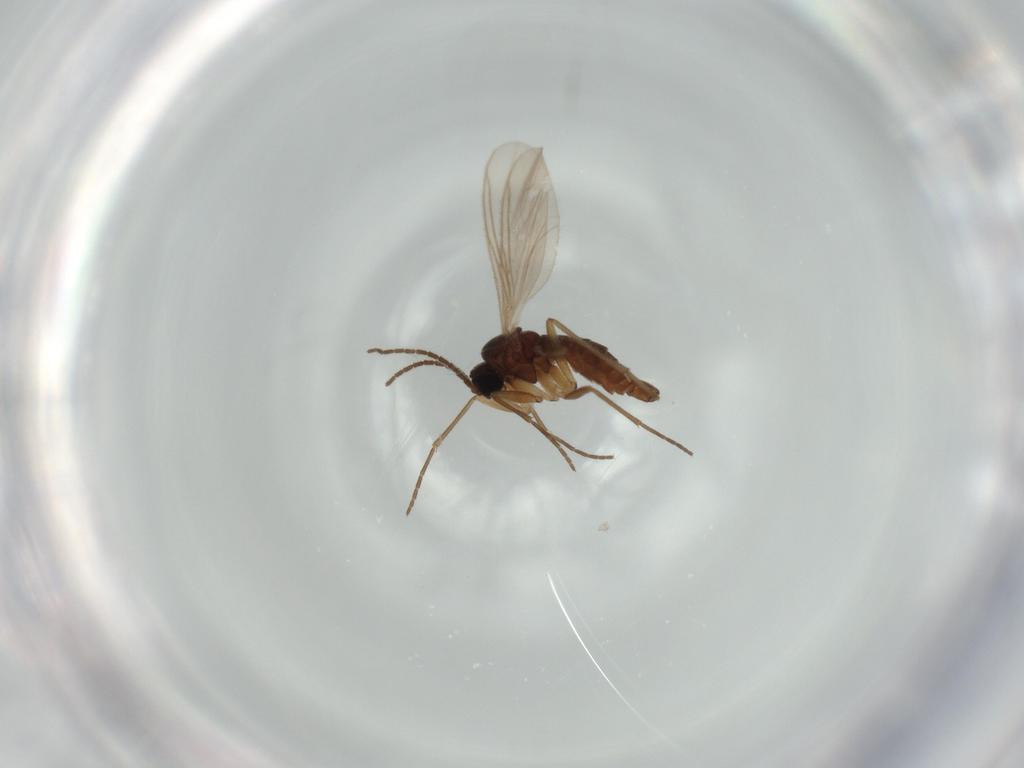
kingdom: Animalia
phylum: Arthropoda
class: Insecta
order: Diptera
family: Sciaridae
